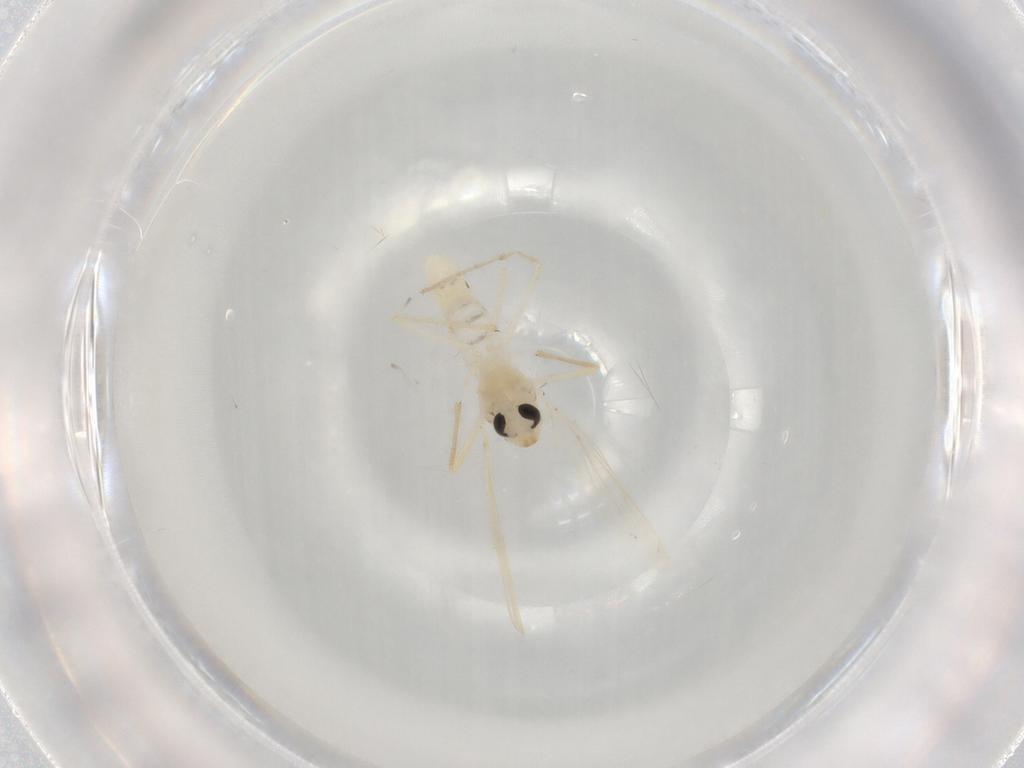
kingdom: Animalia
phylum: Arthropoda
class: Insecta
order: Diptera
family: Chironomidae
